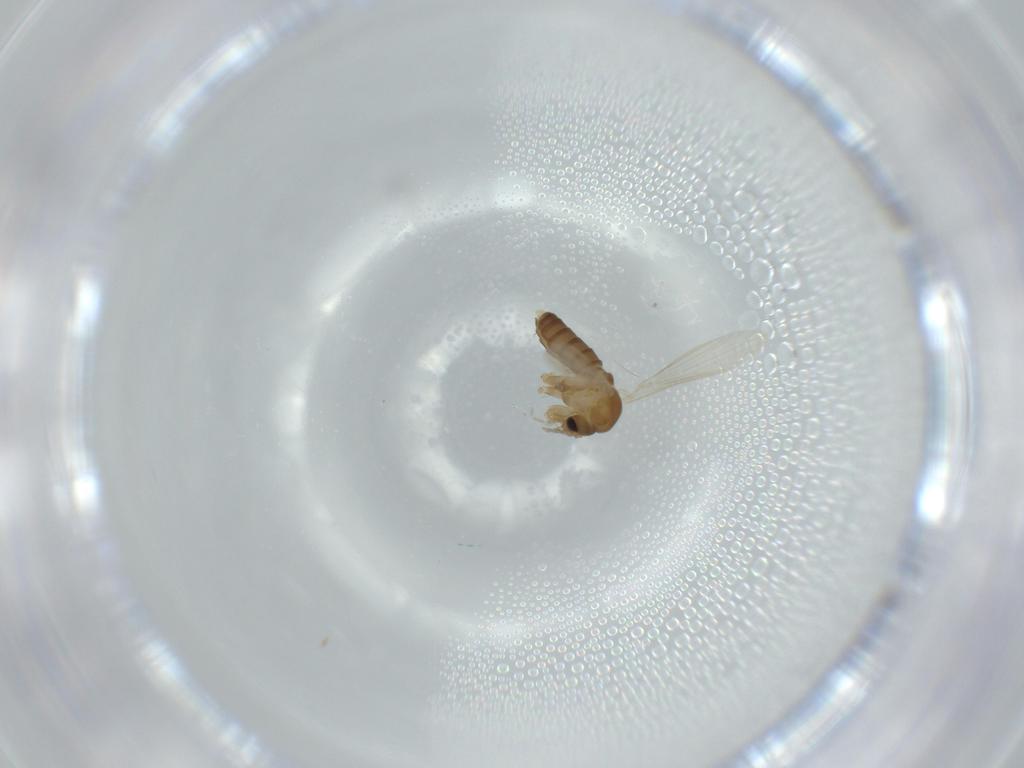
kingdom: Animalia
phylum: Arthropoda
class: Insecta
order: Diptera
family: Psychodidae
